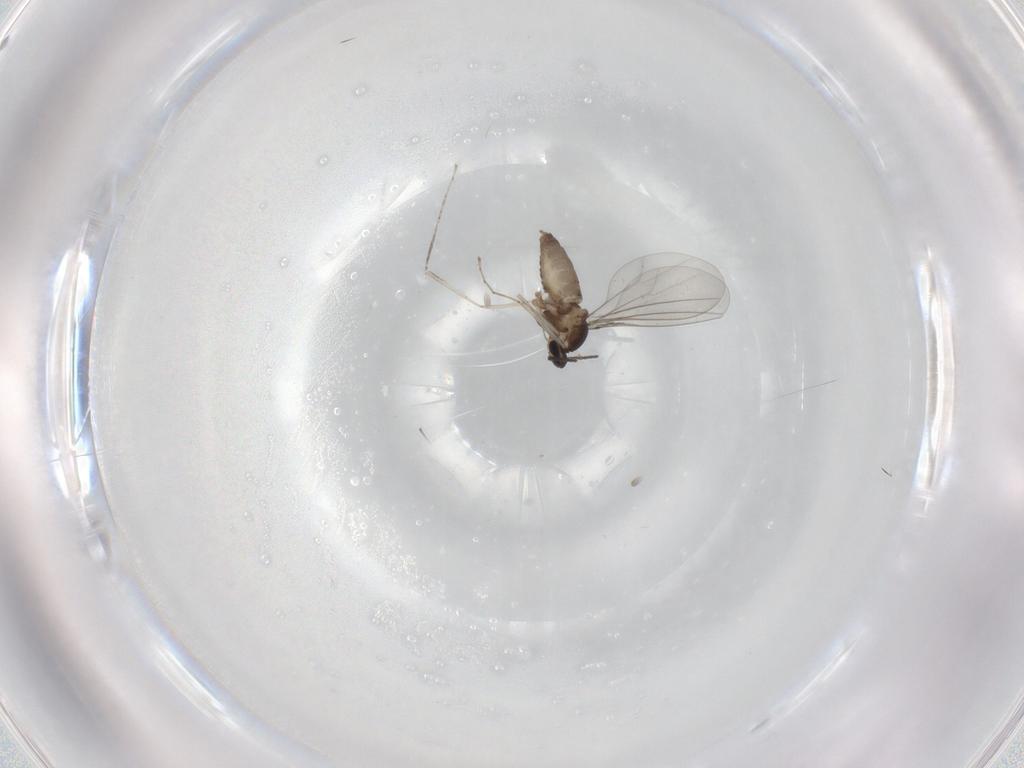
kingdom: Animalia
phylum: Arthropoda
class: Insecta
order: Diptera
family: Cecidomyiidae
